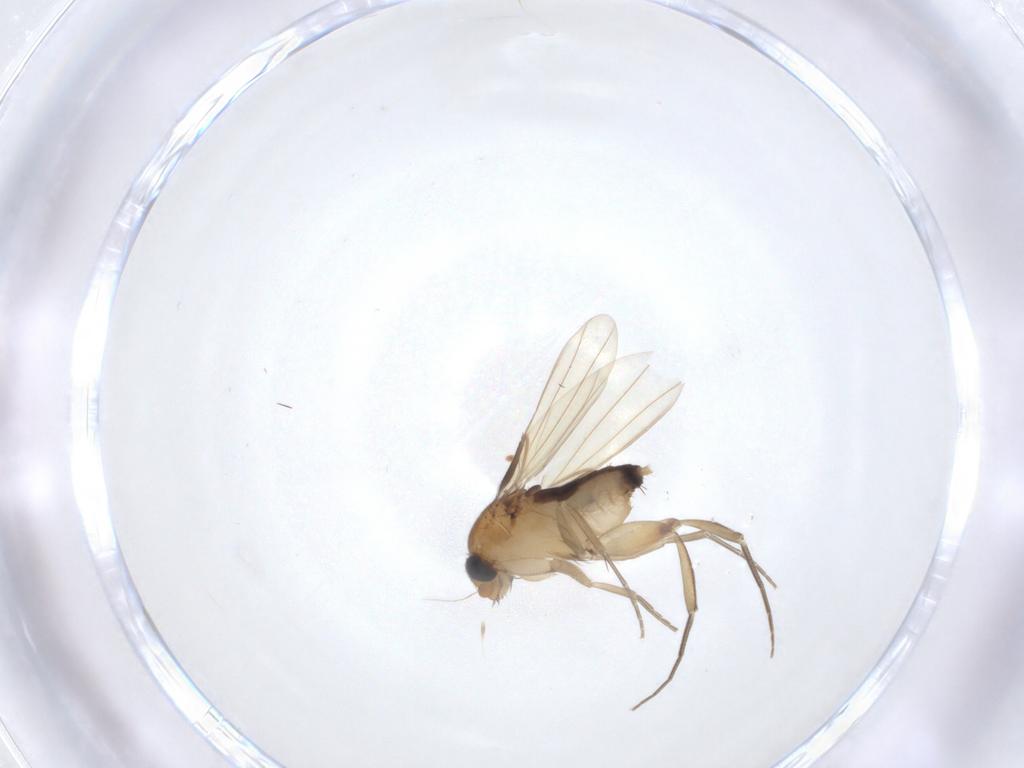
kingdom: Animalia
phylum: Arthropoda
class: Insecta
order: Diptera
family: Phoridae
